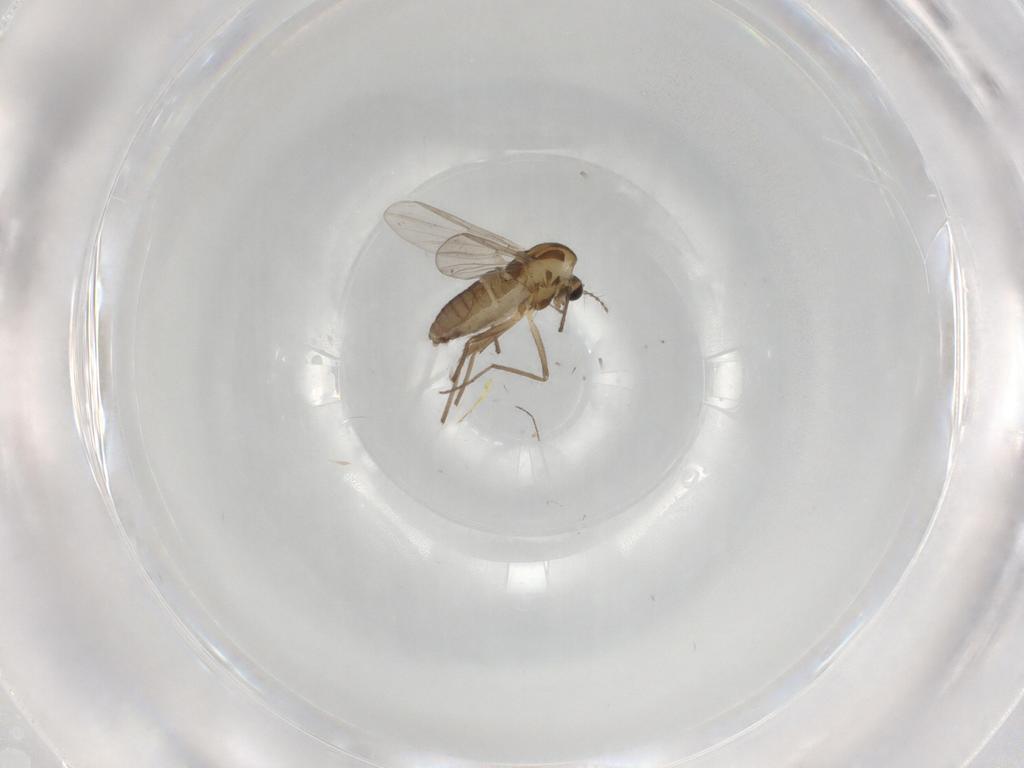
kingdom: Animalia
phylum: Arthropoda
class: Insecta
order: Diptera
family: Chironomidae
